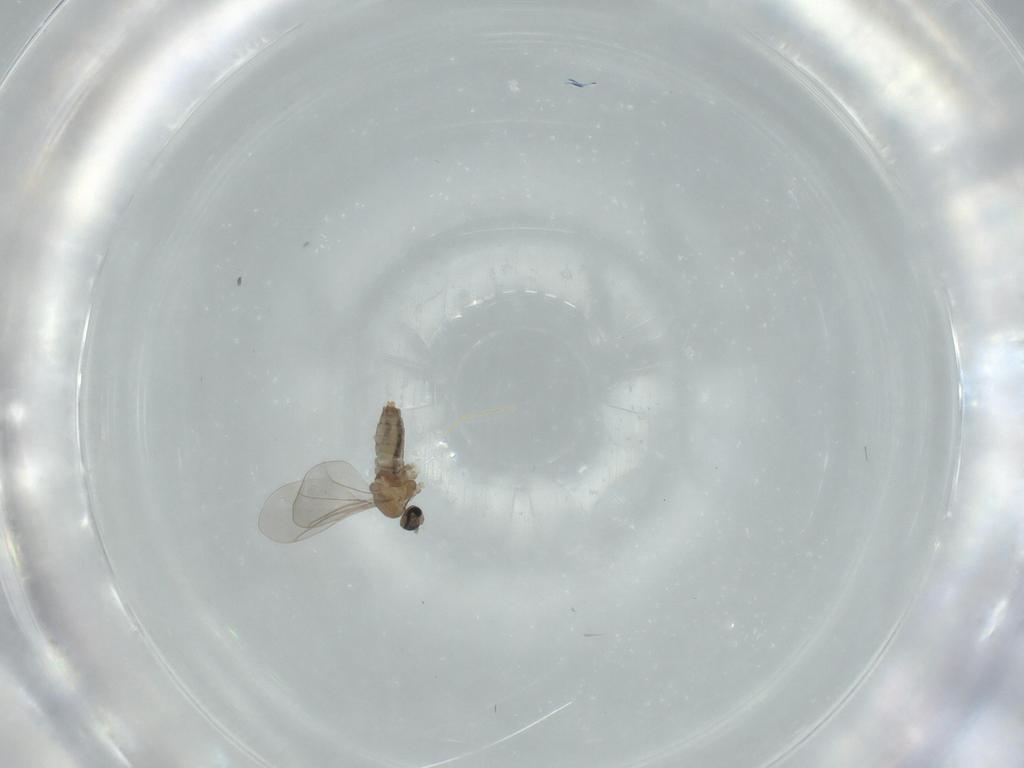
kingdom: Animalia
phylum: Arthropoda
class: Insecta
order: Diptera
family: Chironomidae
